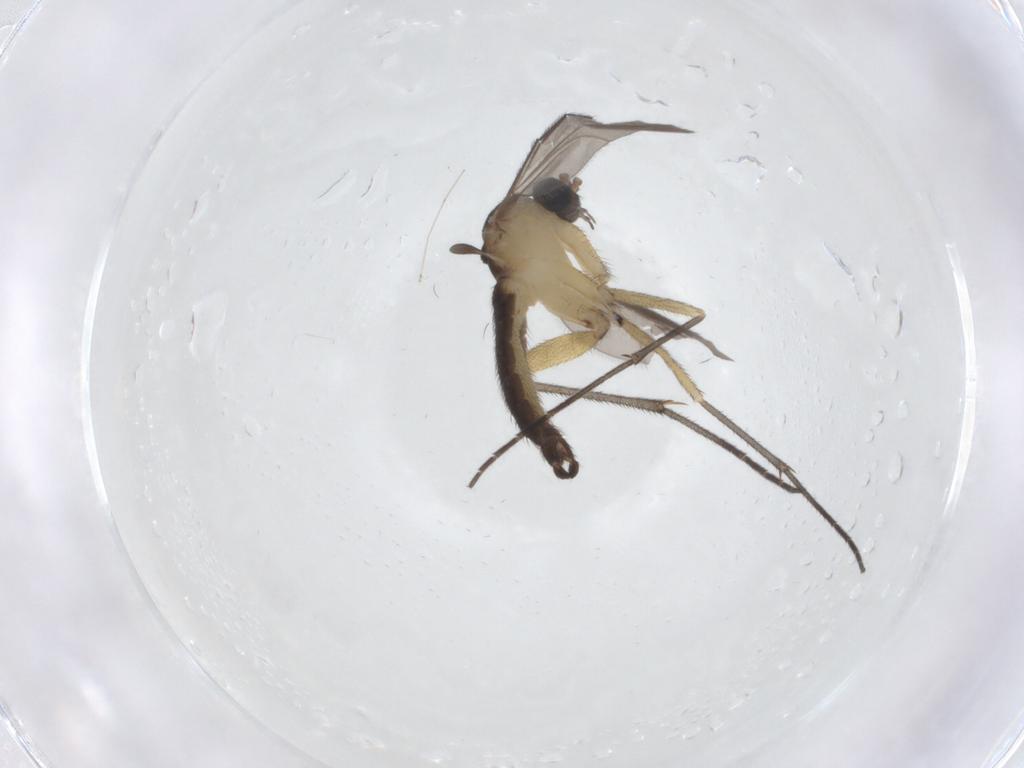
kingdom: Animalia
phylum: Arthropoda
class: Insecta
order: Diptera
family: Sciaridae
